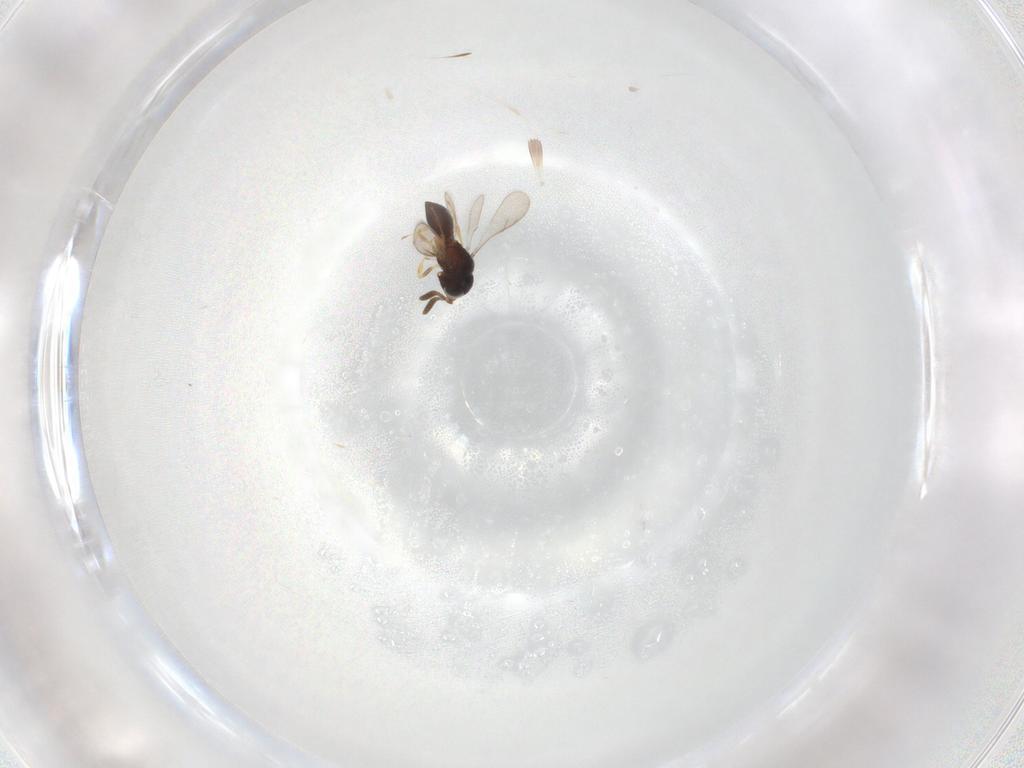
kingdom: Animalia
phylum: Arthropoda
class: Insecta
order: Hymenoptera
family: Scelionidae
